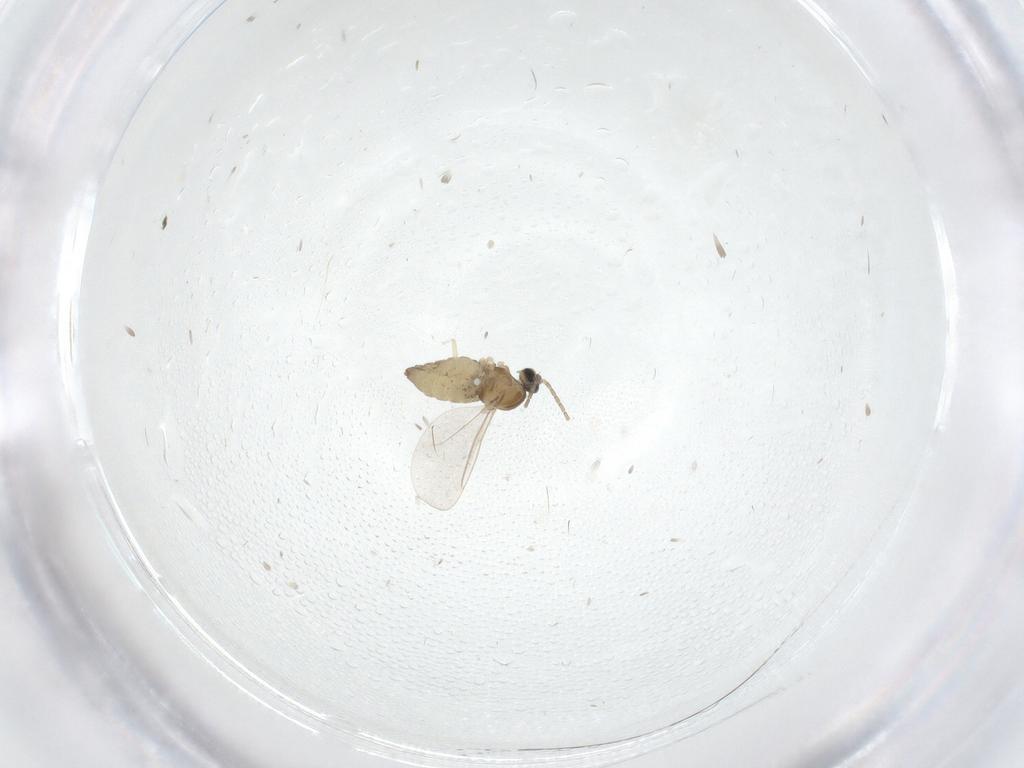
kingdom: Animalia
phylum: Arthropoda
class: Insecta
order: Diptera
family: Cecidomyiidae
